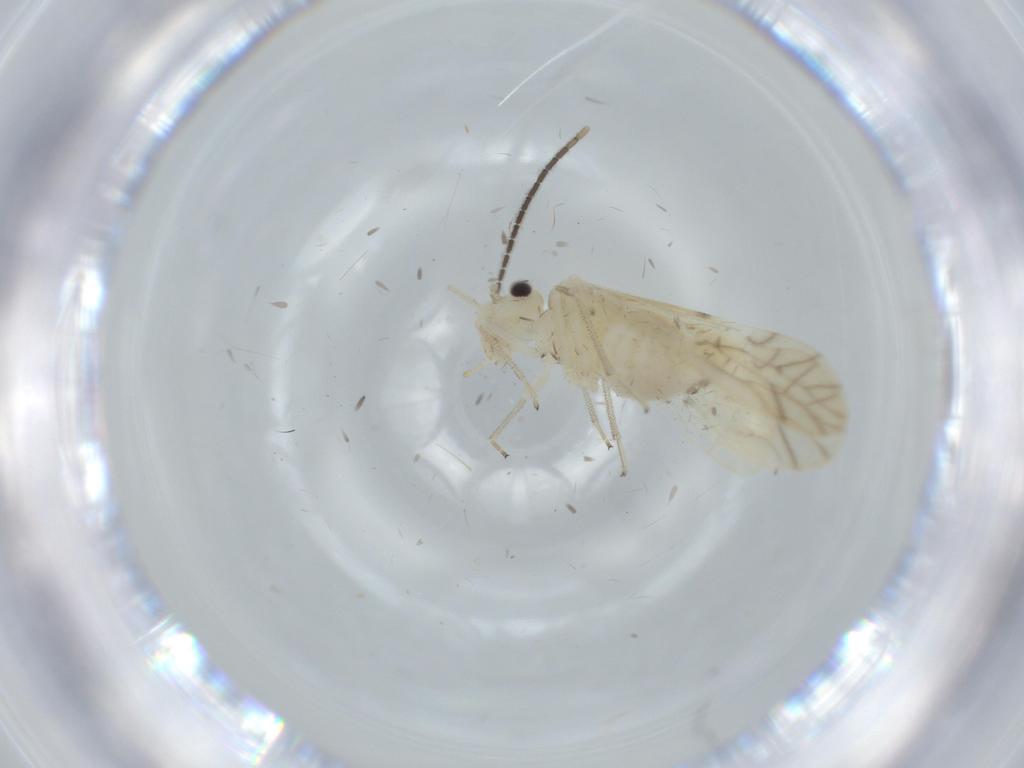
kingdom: Animalia
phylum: Arthropoda
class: Insecta
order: Psocodea
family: Caeciliusidae
